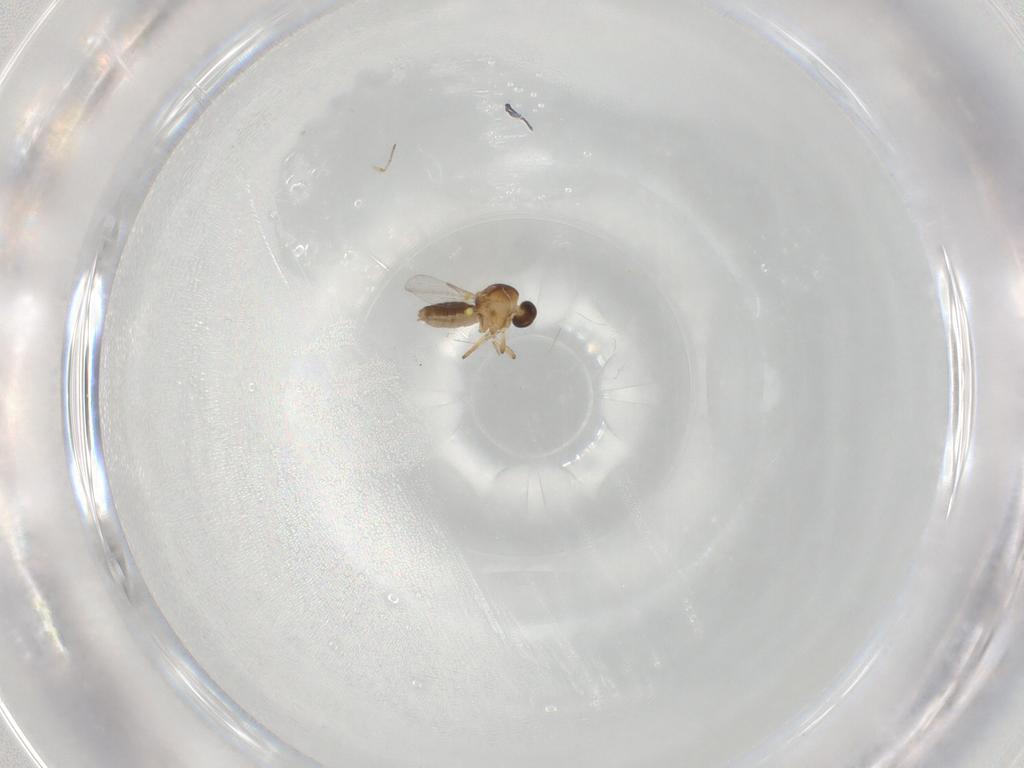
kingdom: Animalia
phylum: Arthropoda
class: Insecta
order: Diptera
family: Ceratopogonidae
